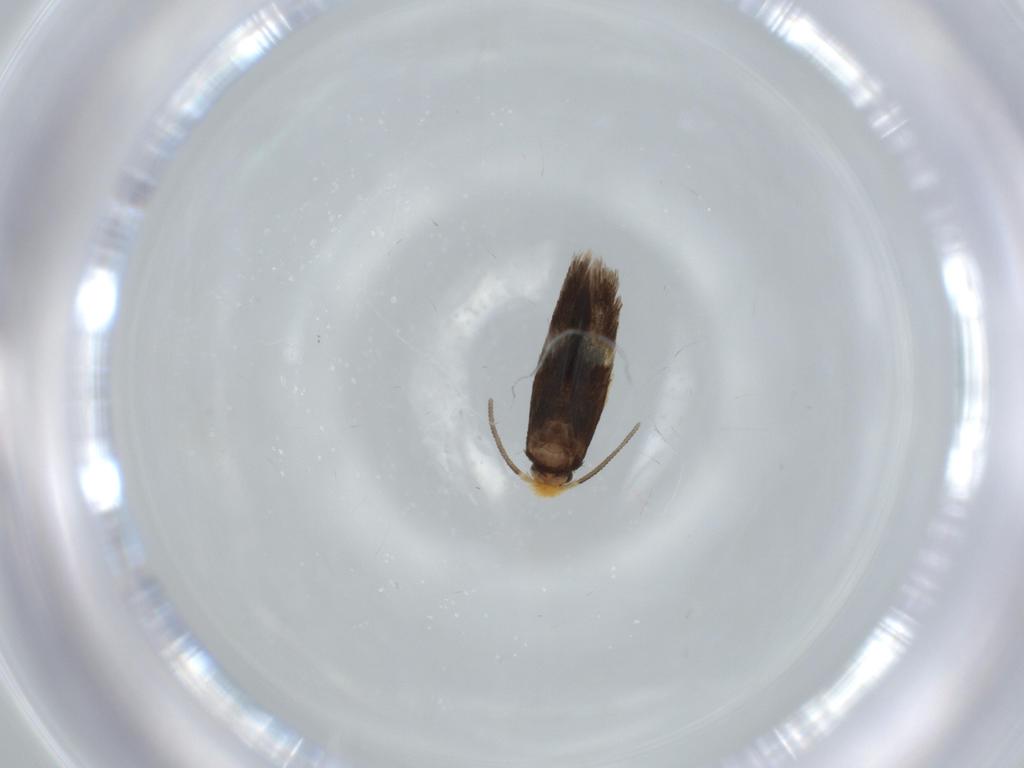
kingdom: Animalia
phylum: Arthropoda
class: Insecta
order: Lepidoptera
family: Nepticulidae
